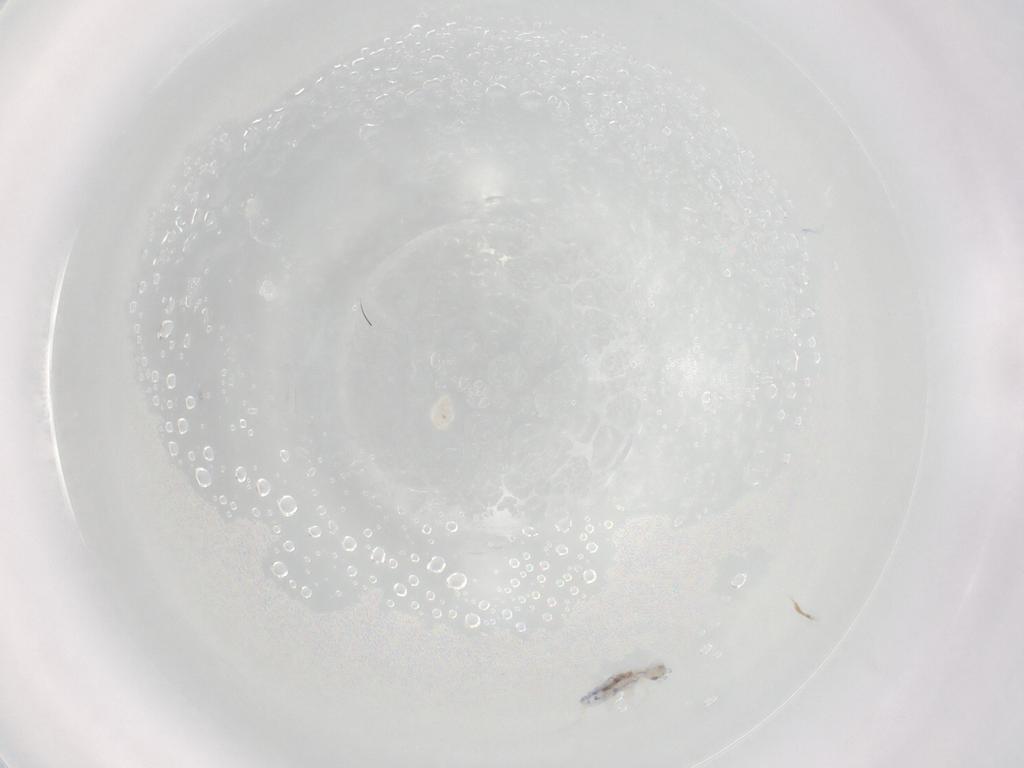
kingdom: Animalia
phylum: Arthropoda
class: Collembola
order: Entomobryomorpha
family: Entomobryidae
